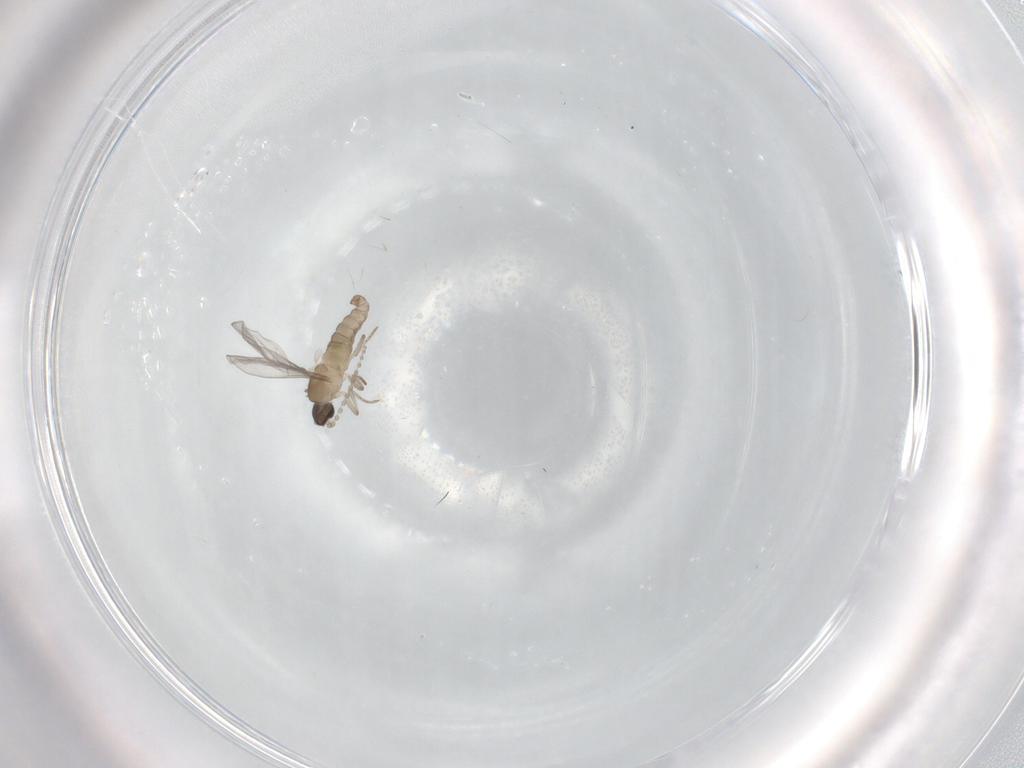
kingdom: Animalia
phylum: Arthropoda
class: Insecta
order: Diptera
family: Cecidomyiidae
